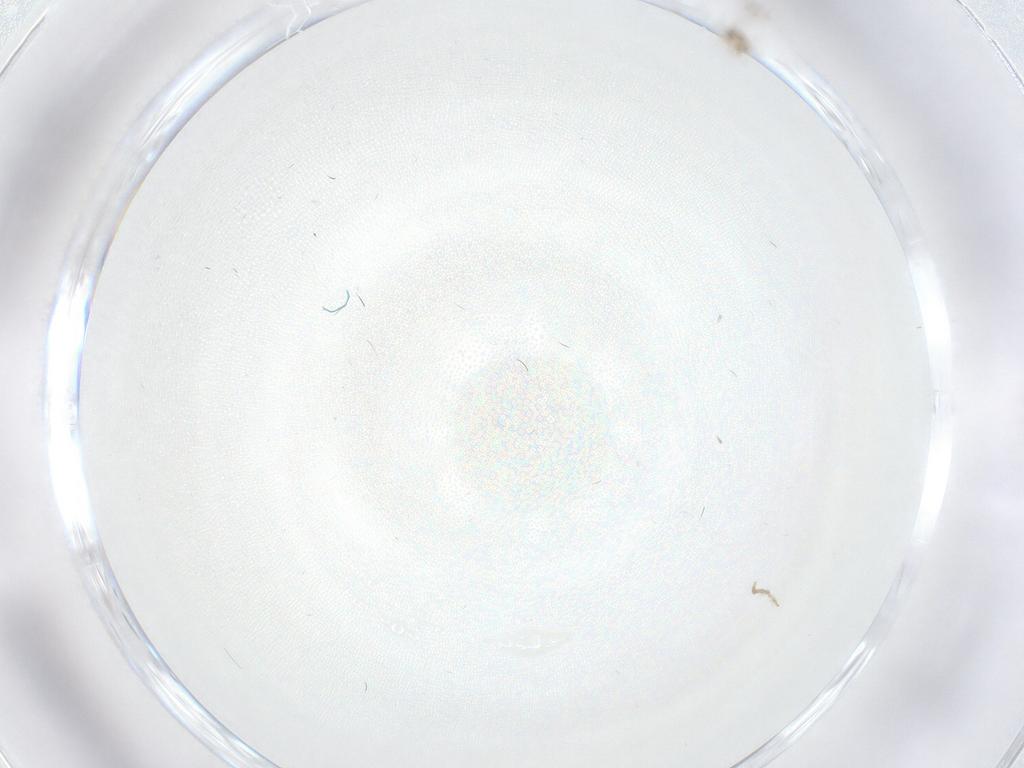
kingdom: Animalia
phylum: Arthropoda
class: Insecta
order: Diptera
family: Chironomidae
